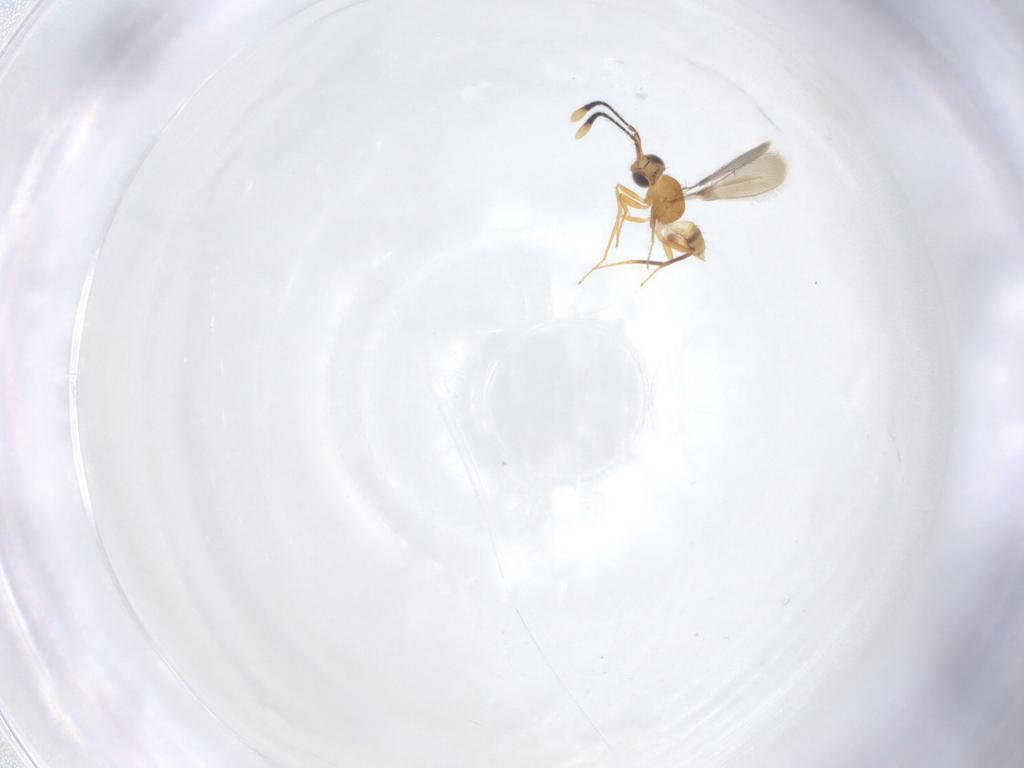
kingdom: Animalia
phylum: Arthropoda
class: Insecta
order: Hymenoptera
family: Mymaridae
